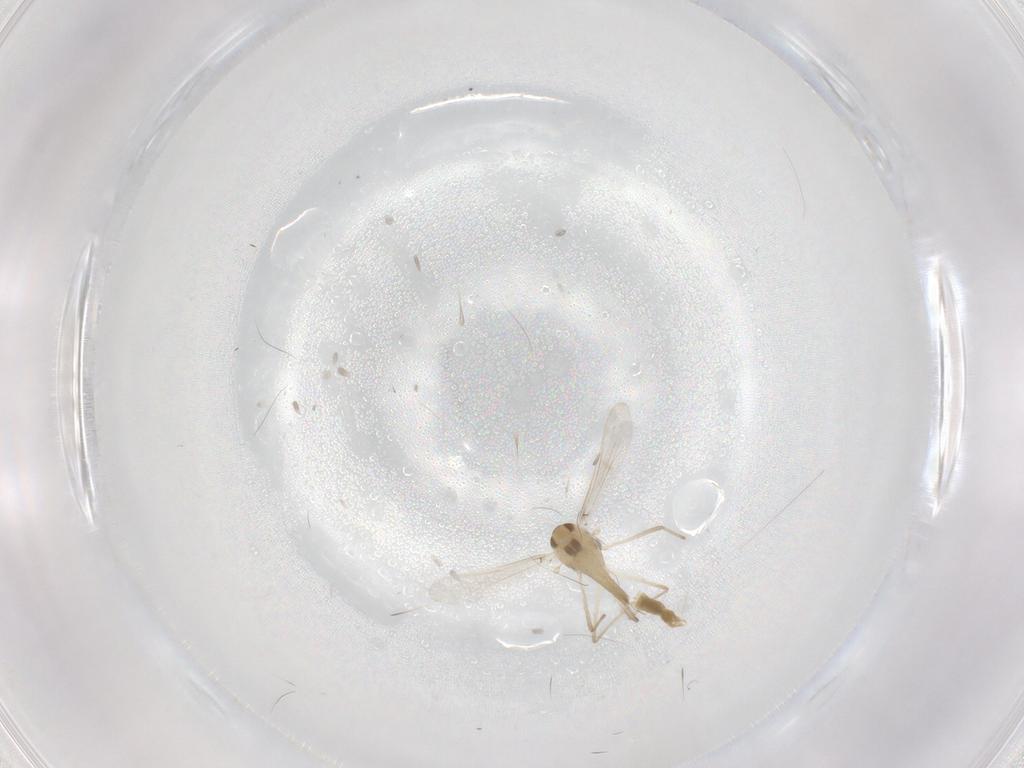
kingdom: Animalia
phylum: Arthropoda
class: Insecta
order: Diptera
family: Chironomidae
